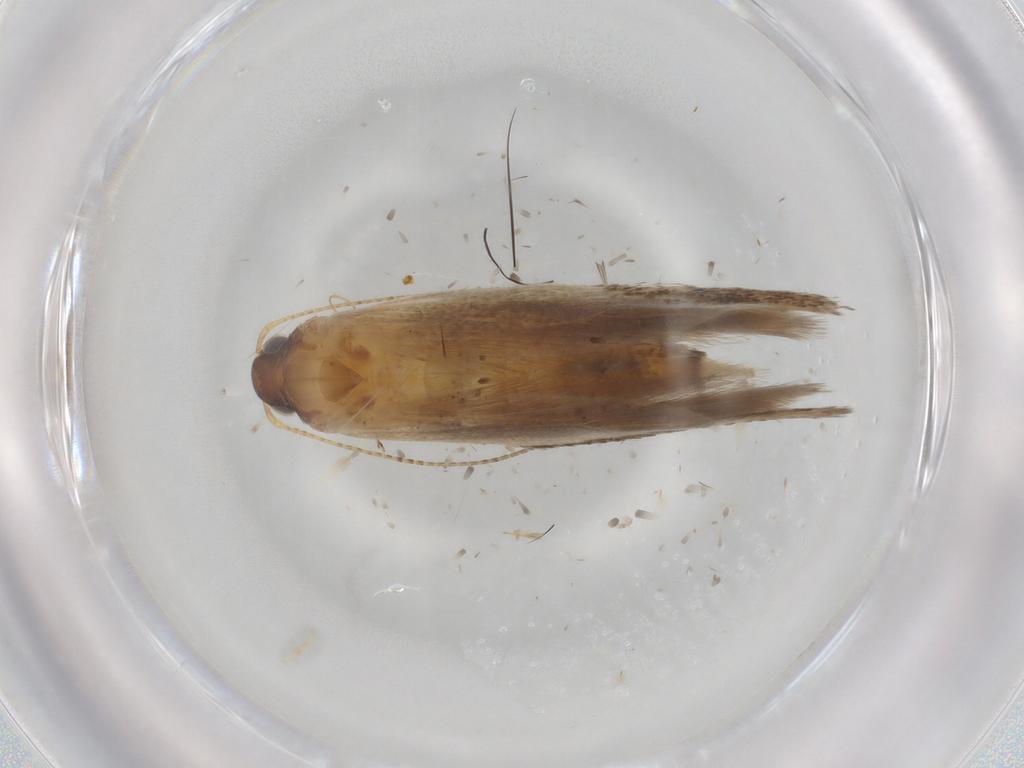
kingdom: Animalia
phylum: Arthropoda
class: Insecta
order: Lepidoptera
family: Gelechiidae
